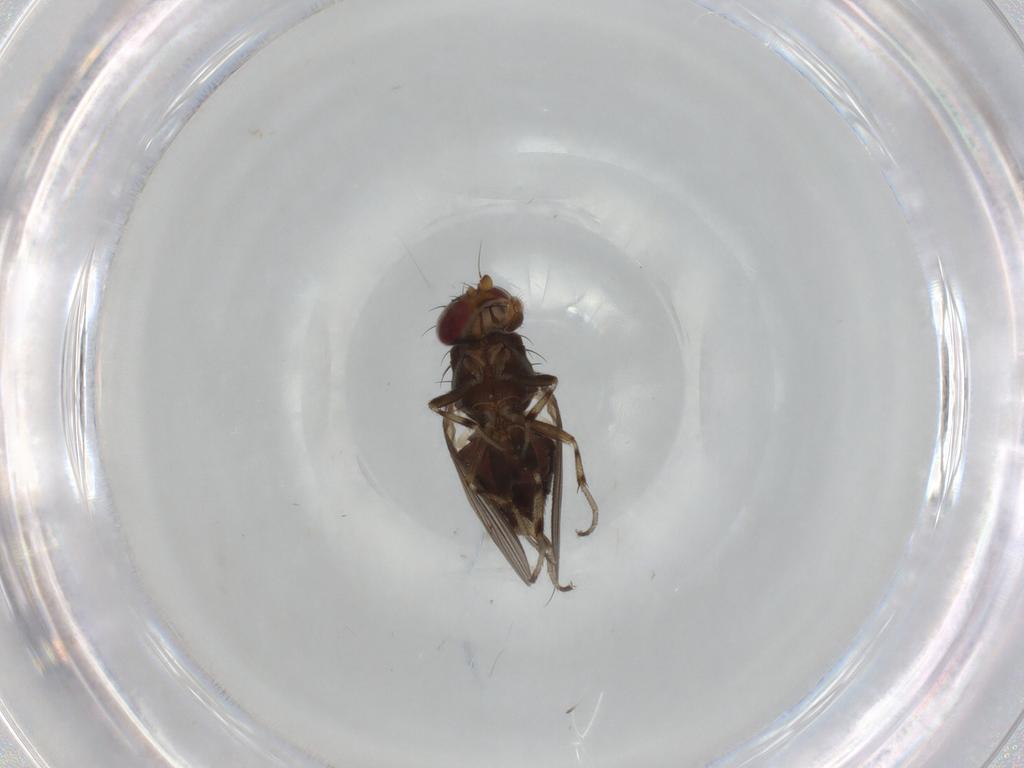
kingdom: Animalia
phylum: Arthropoda
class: Insecta
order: Diptera
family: Heleomyzidae
